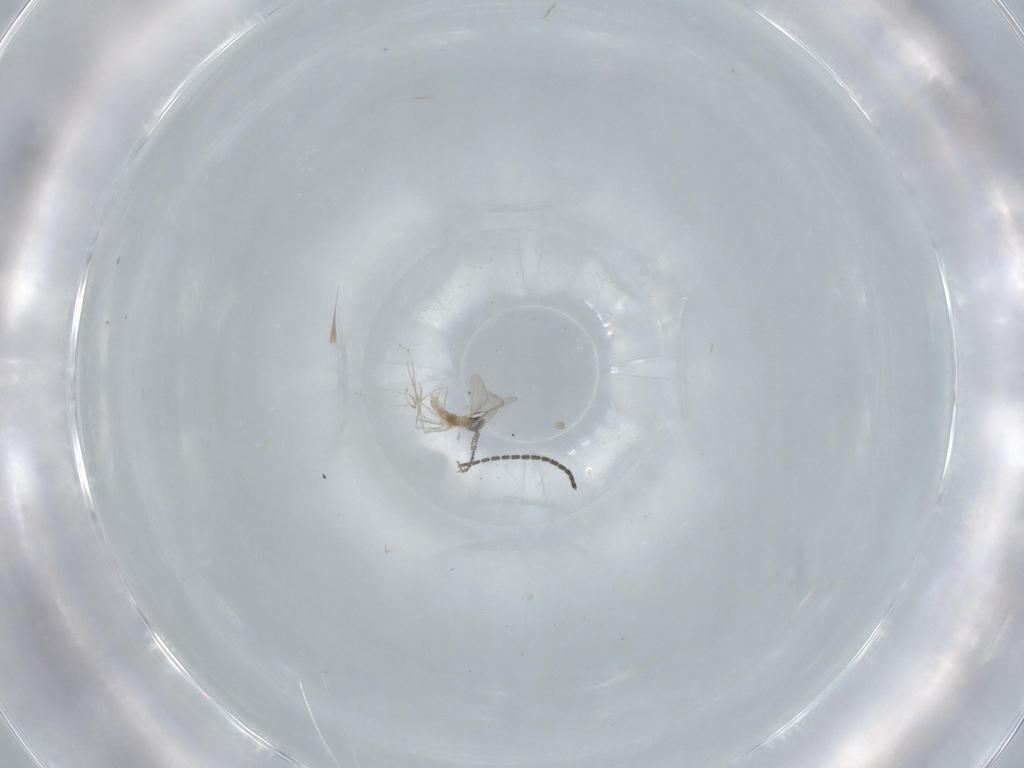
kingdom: Animalia
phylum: Arthropoda
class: Insecta
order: Diptera
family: Sciaridae
